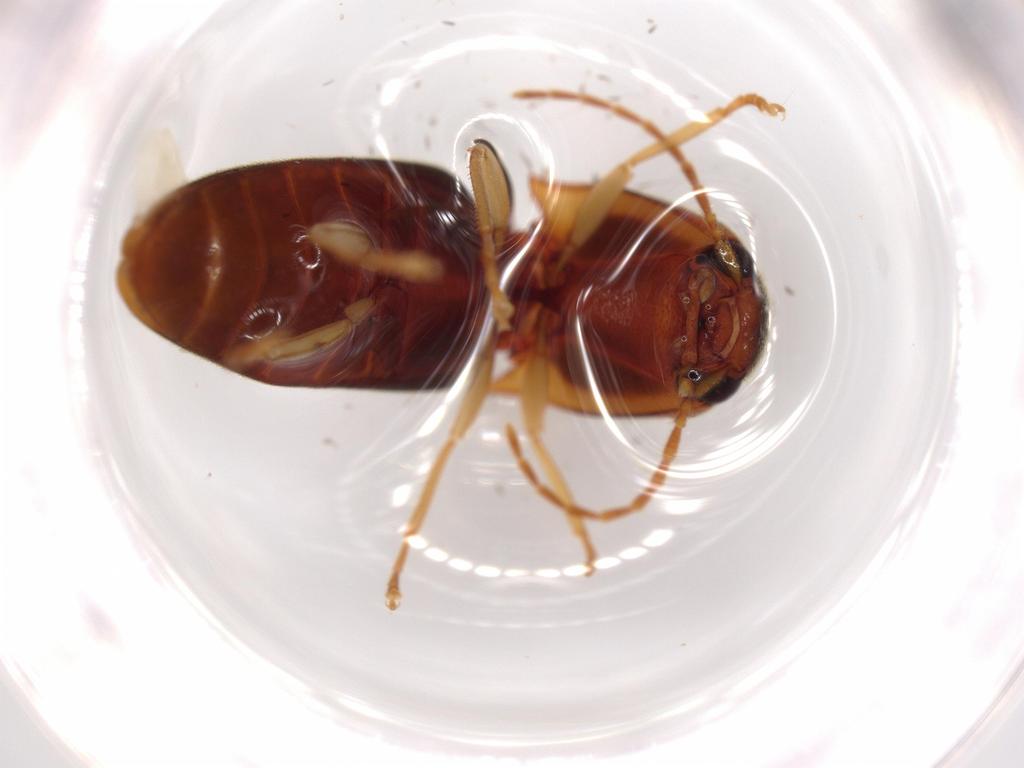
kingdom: Animalia
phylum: Arthropoda
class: Insecta
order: Coleoptera
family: Elateridae
